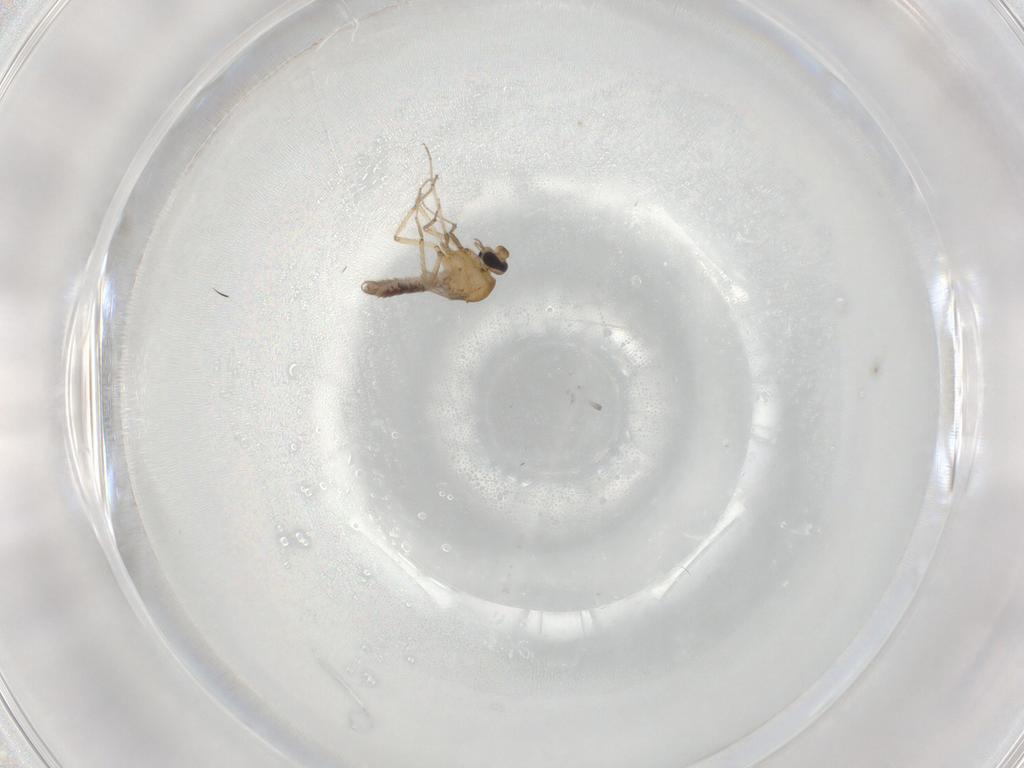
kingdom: Animalia
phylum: Arthropoda
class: Insecta
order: Diptera
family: Ceratopogonidae
